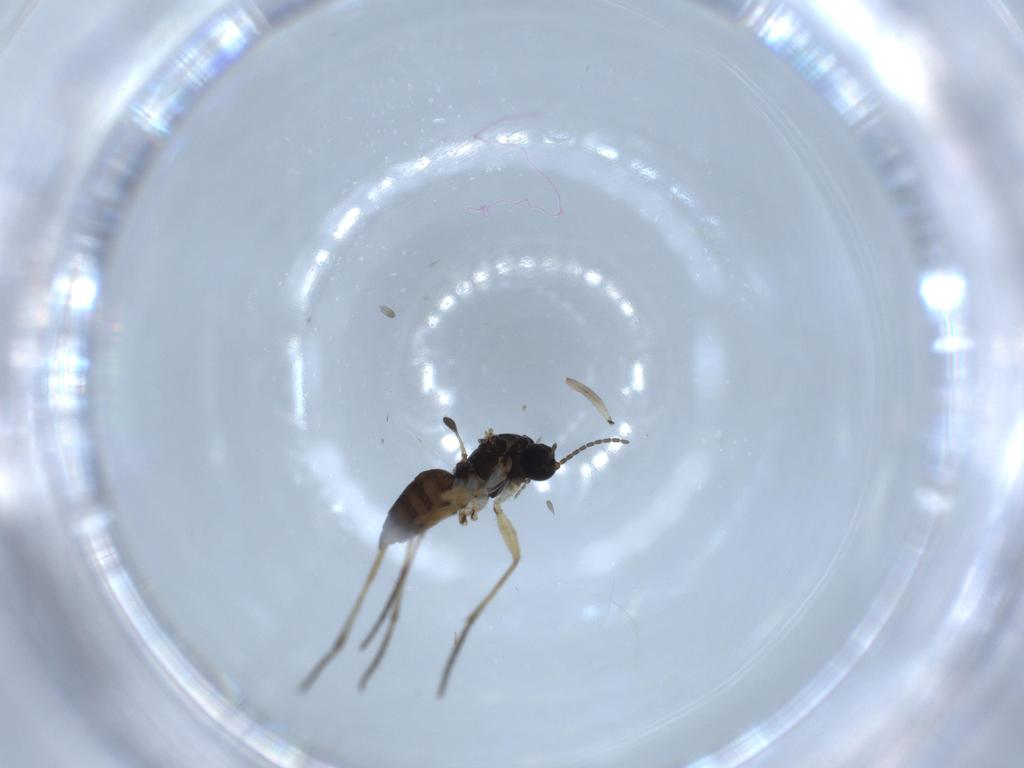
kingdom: Animalia
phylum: Arthropoda
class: Insecta
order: Diptera
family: Sciaridae
